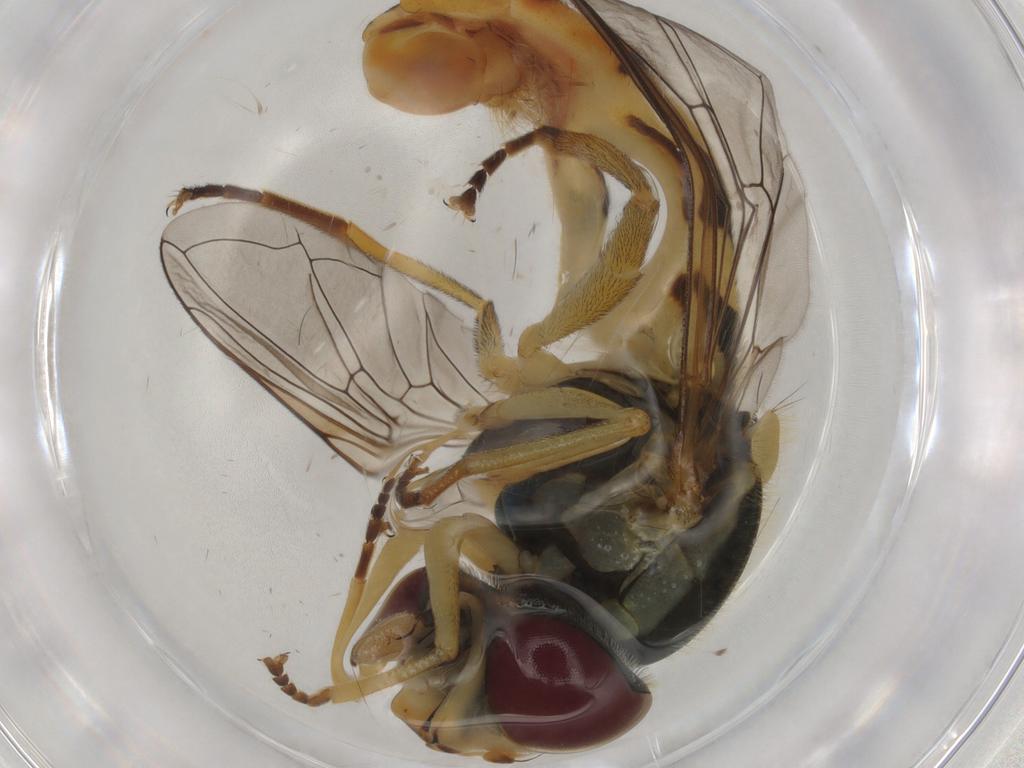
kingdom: Animalia
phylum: Arthropoda
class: Insecta
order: Diptera
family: Syrphidae
